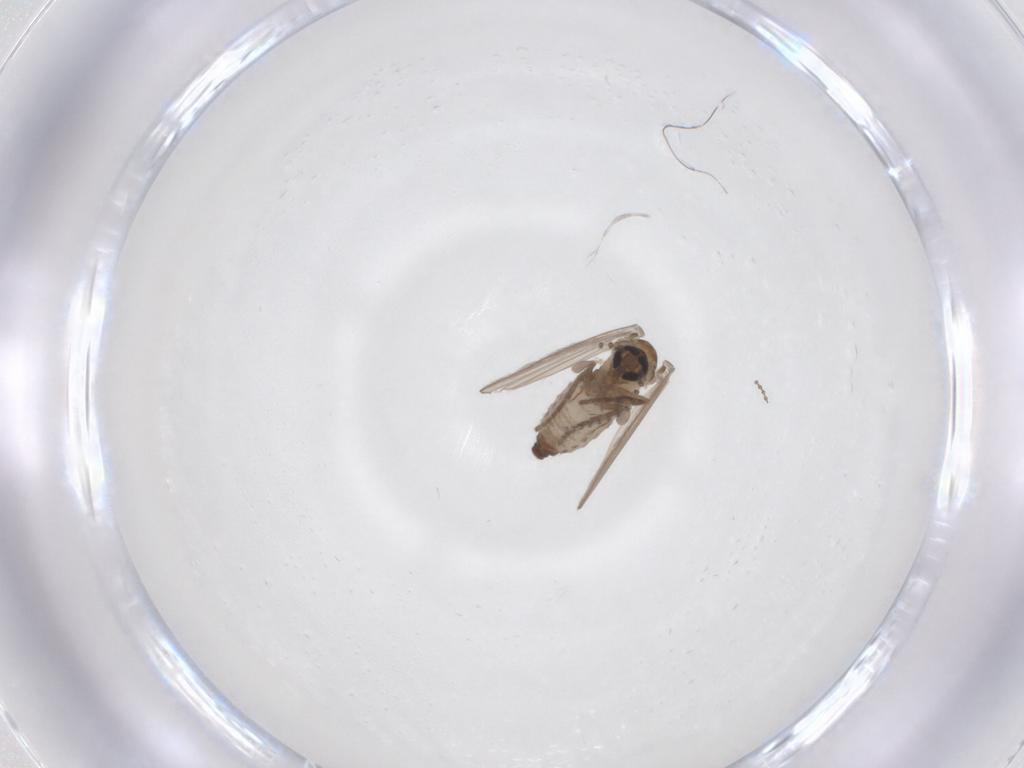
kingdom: Animalia
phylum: Arthropoda
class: Insecta
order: Diptera
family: Psychodidae
